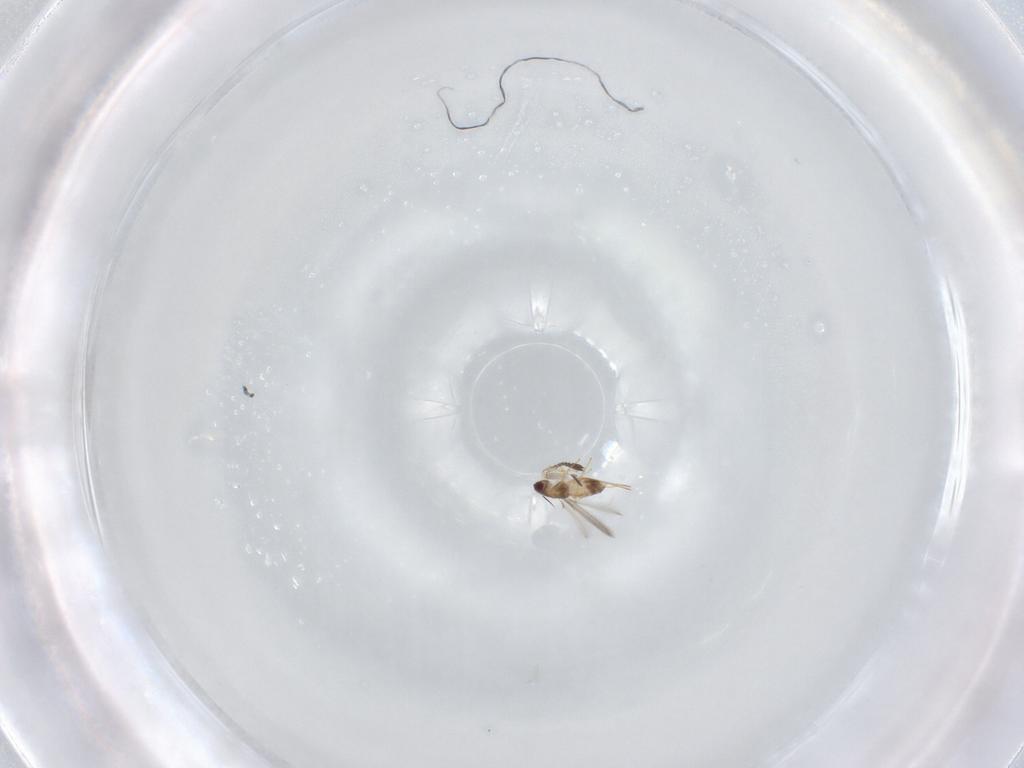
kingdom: Animalia
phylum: Arthropoda
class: Insecta
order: Hymenoptera
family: Mymaridae
